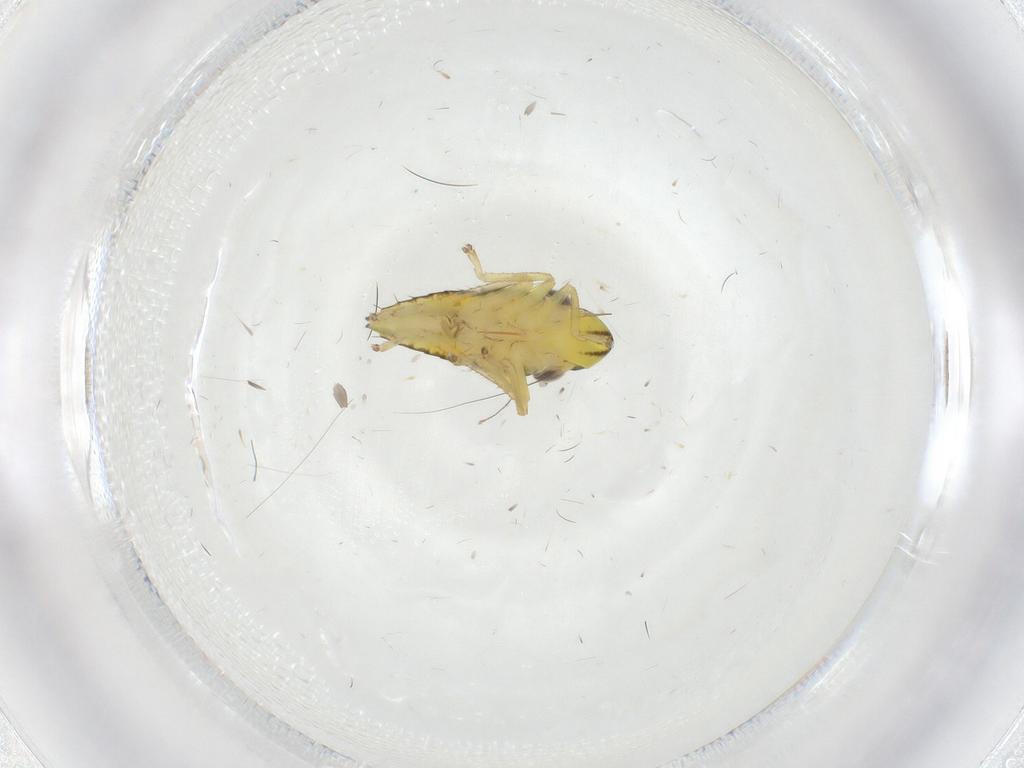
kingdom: Animalia
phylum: Arthropoda
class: Insecta
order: Hemiptera
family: Cicadellidae
